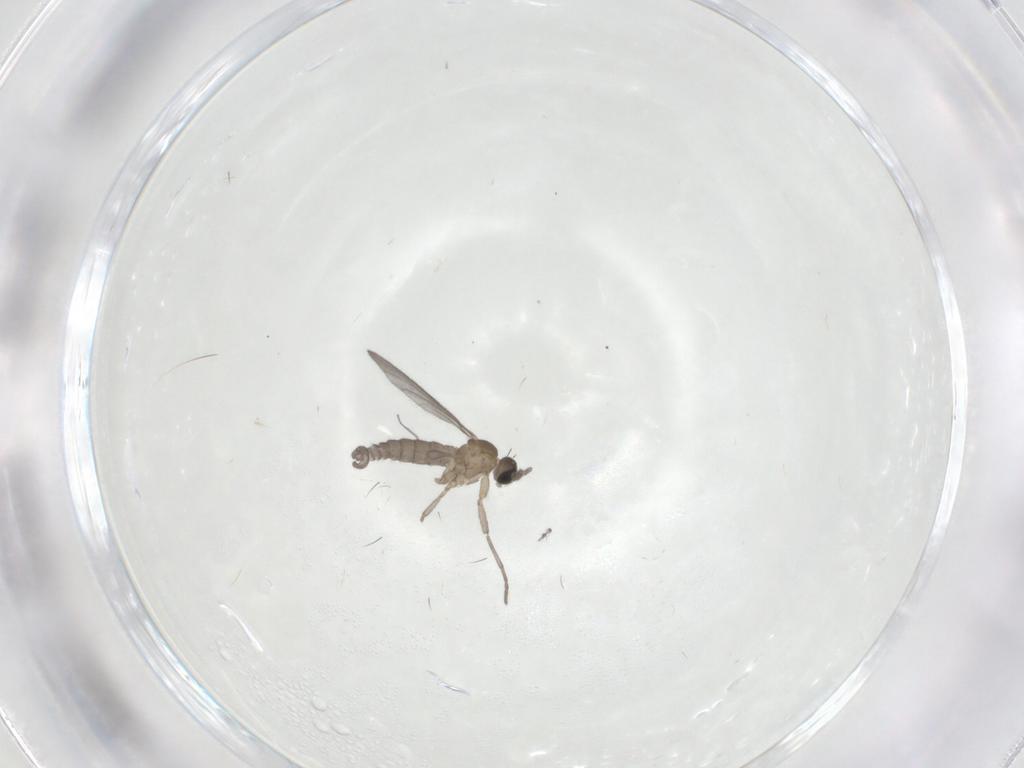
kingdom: Animalia
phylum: Arthropoda
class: Insecta
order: Diptera
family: Sciaridae
